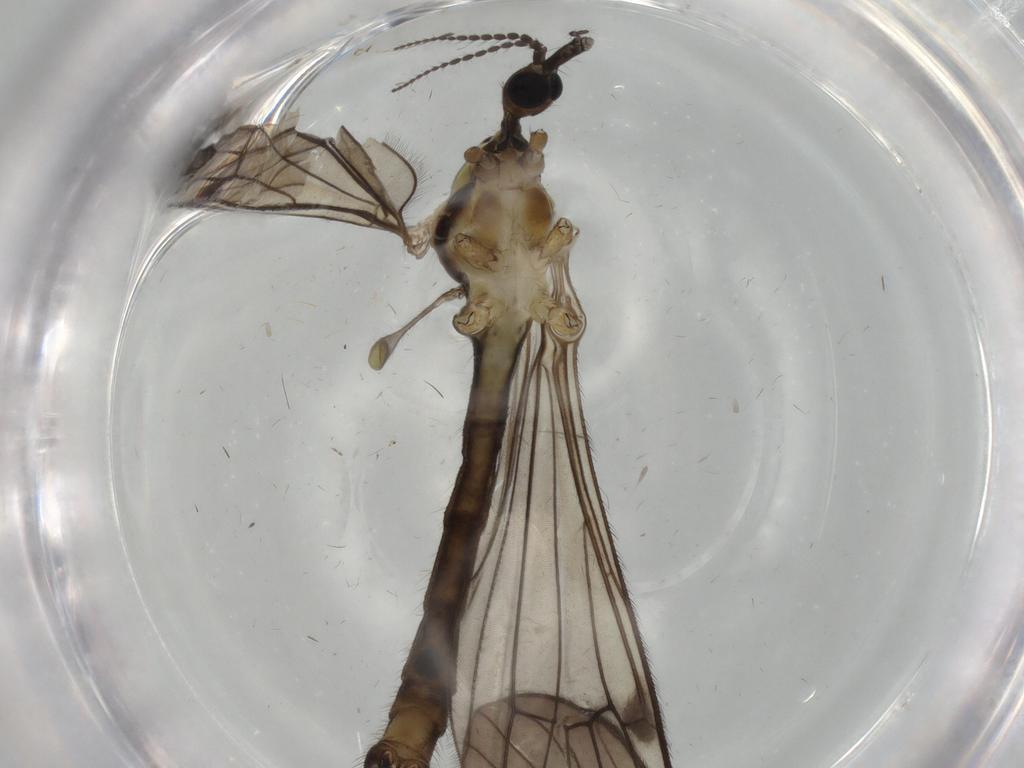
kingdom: Animalia
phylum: Arthropoda
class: Insecta
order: Diptera
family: Limoniidae
